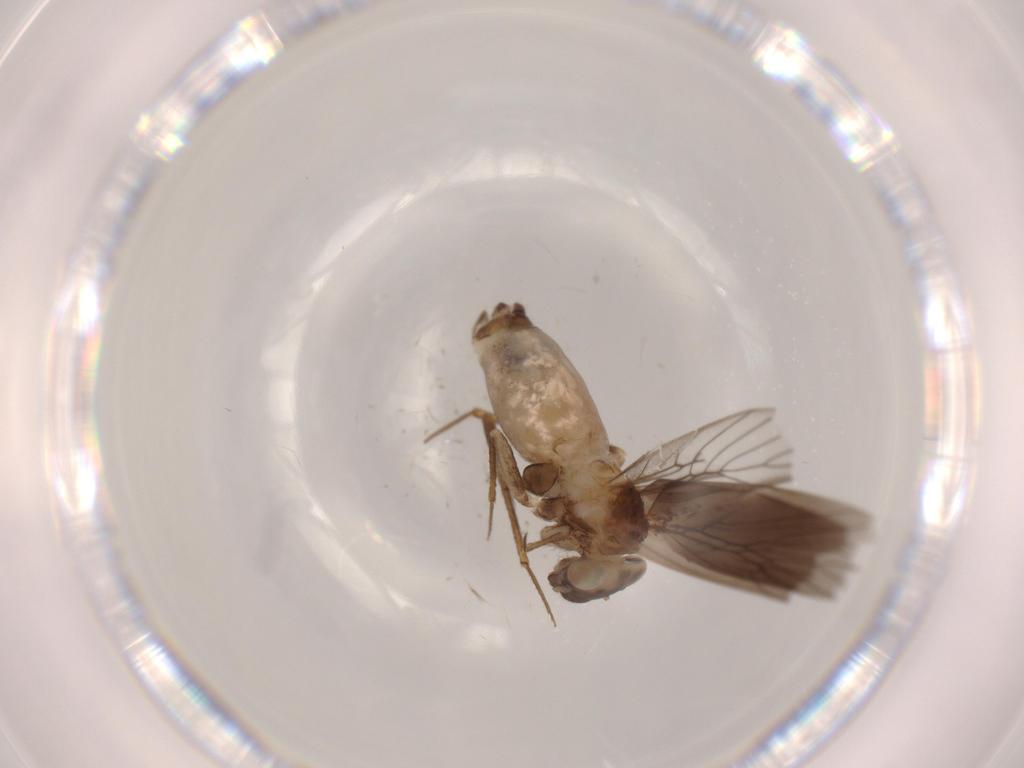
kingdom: Animalia
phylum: Arthropoda
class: Insecta
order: Psocodea
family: Lepidopsocidae
